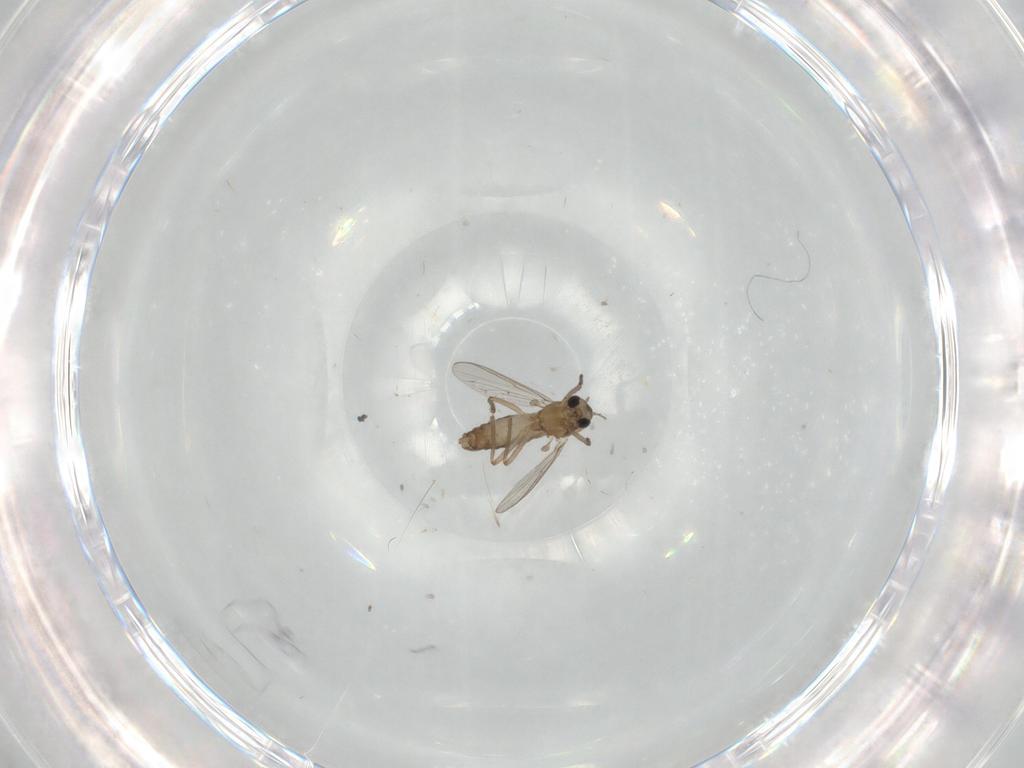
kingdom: Animalia
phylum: Arthropoda
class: Insecta
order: Diptera
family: Chironomidae
